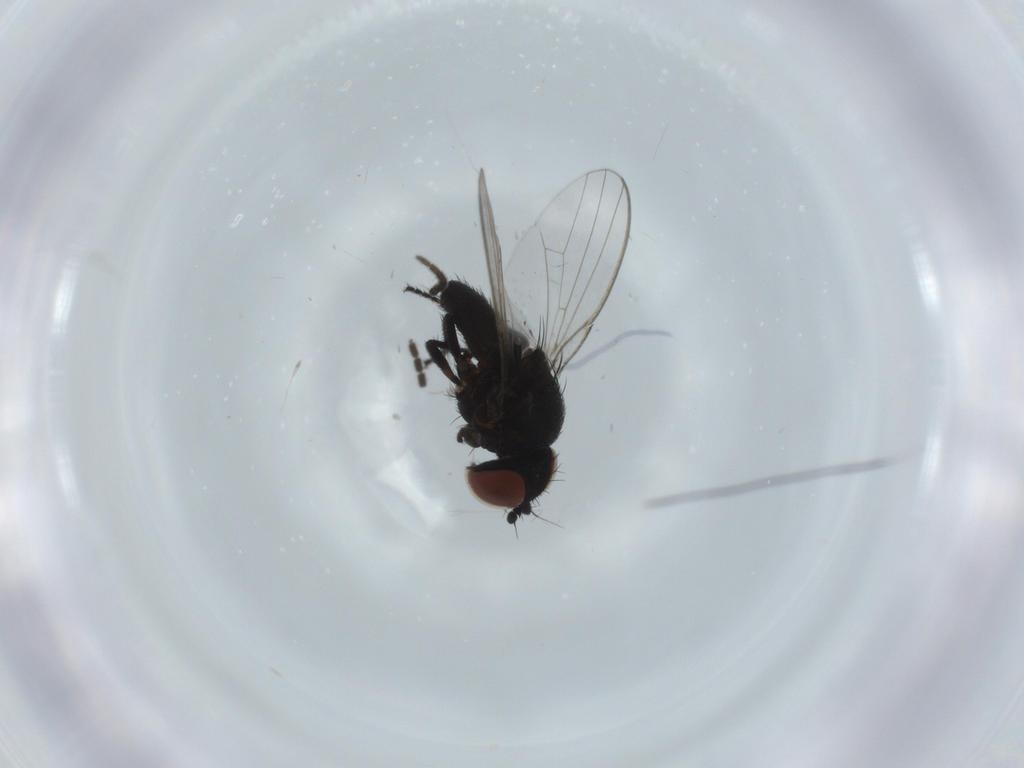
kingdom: Animalia
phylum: Arthropoda
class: Insecta
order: Diptera
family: Sciaridae
